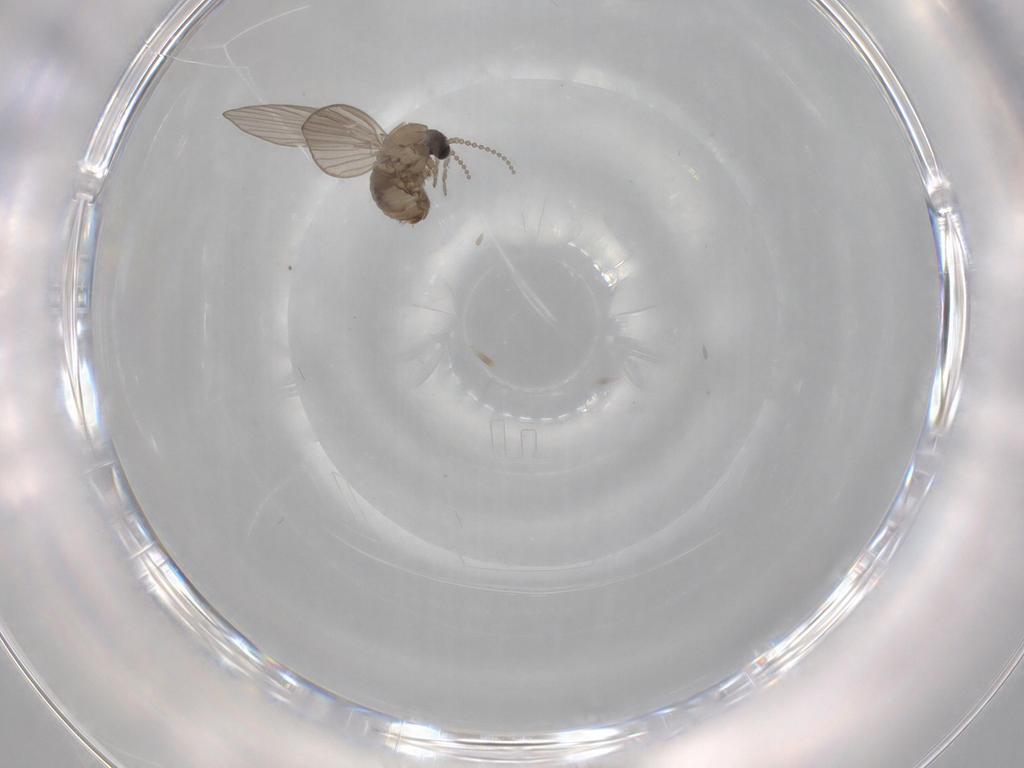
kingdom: Animalia
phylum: Arthropoda
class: Insecta
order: Diptera
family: Psychodidae
